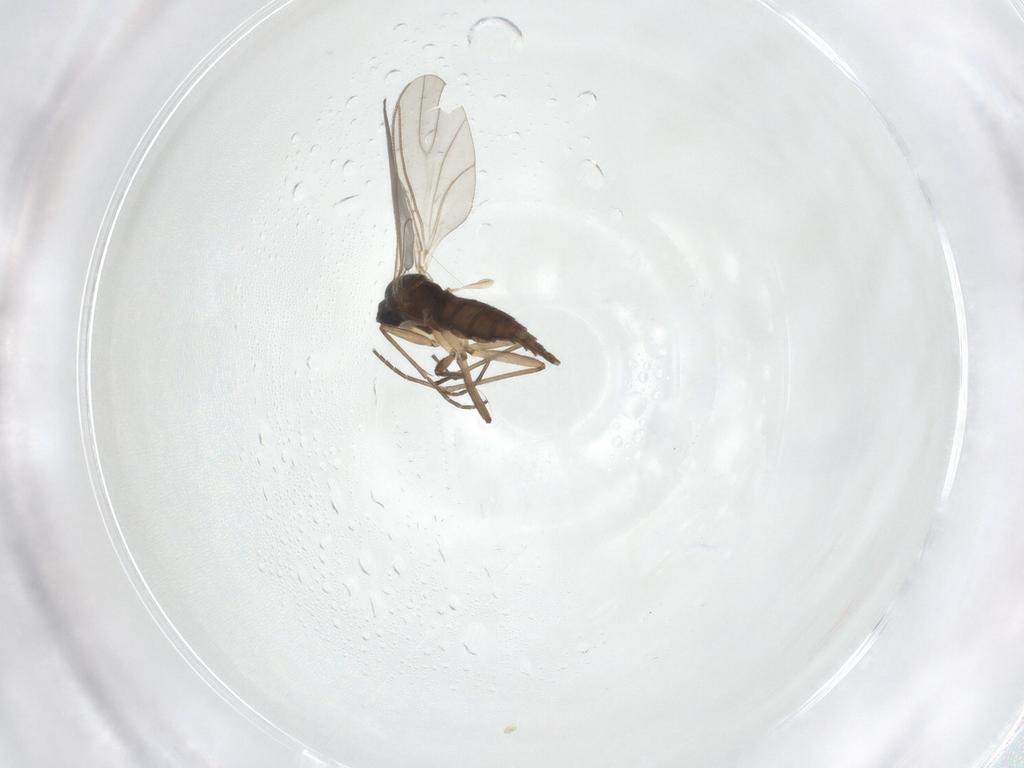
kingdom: Animalia
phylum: Arthropoda
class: Insecta
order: Diptera
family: Sciaridae
